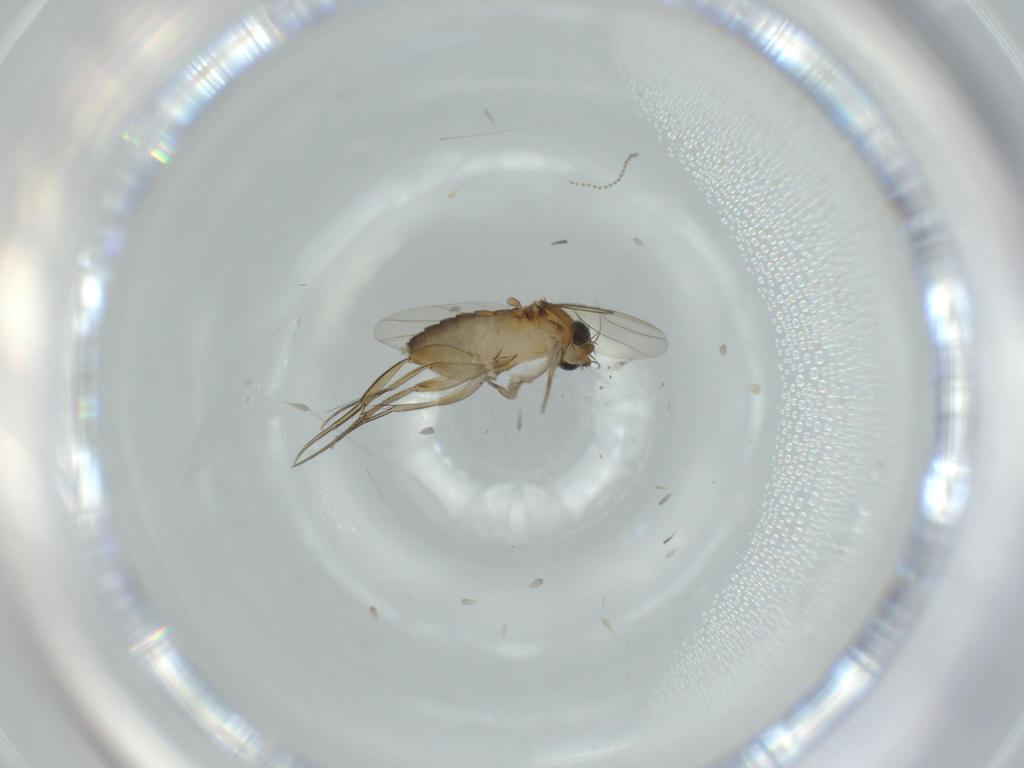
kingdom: Animalia
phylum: Arthropoda
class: Insecta
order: Diptera
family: Phoridae
